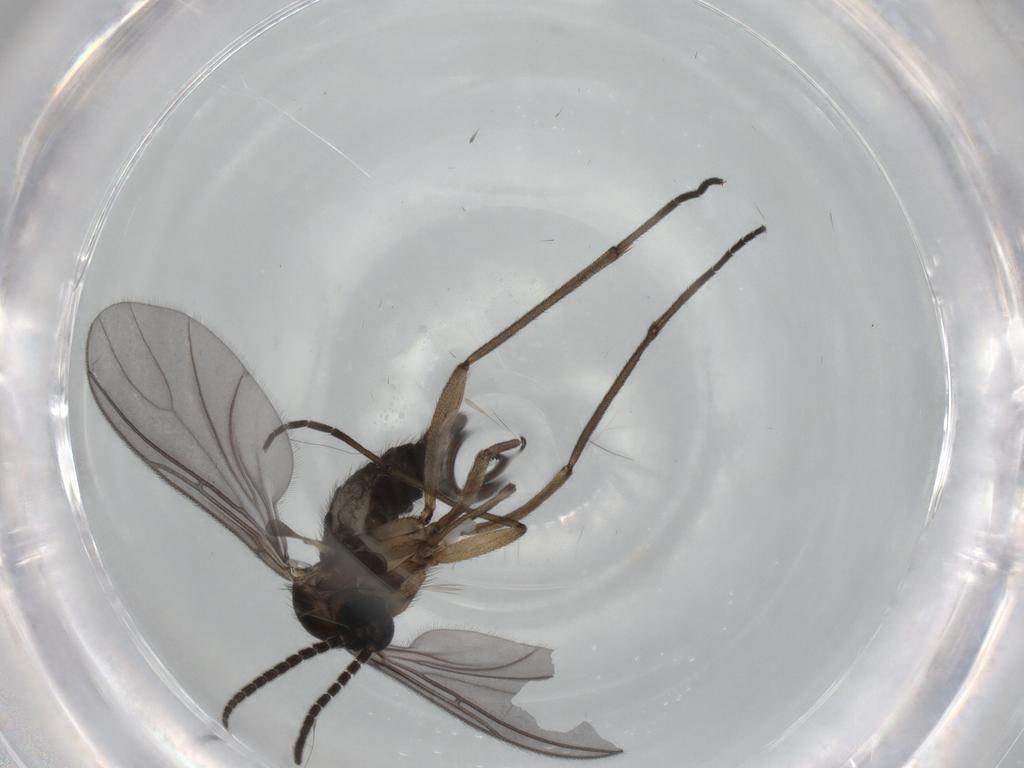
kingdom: Animalia
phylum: Arthropoda
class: Insecta
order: Diptera
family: Sciaridae
